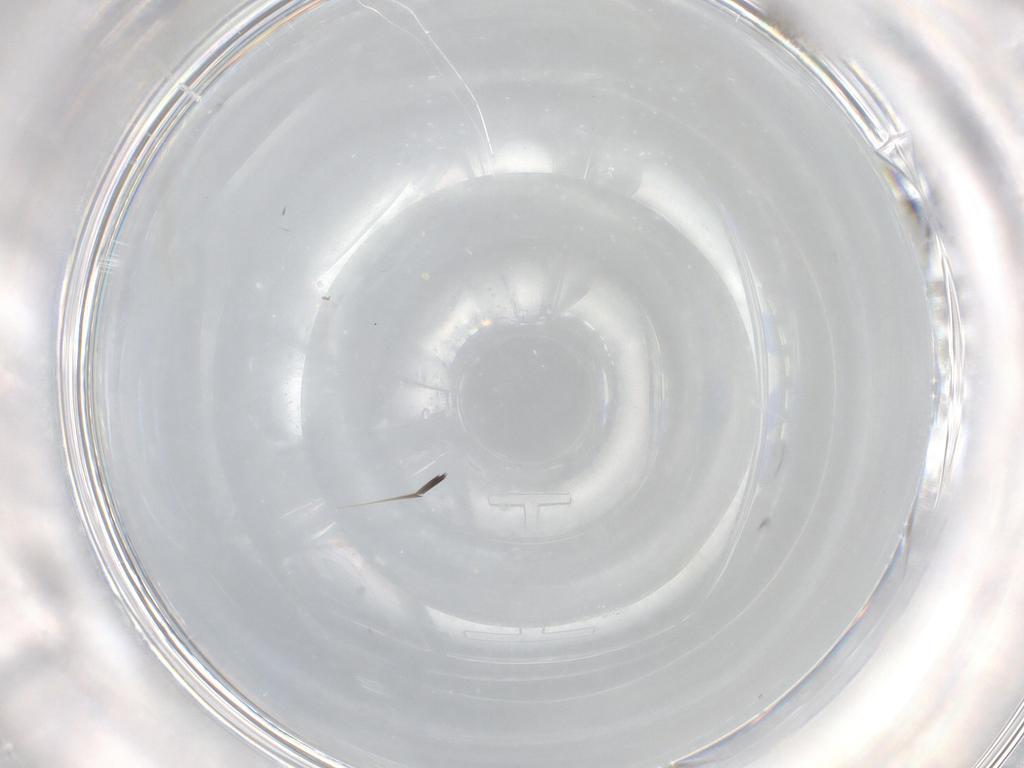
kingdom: Animalia
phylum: Arthropoda
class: Insecta
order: Diptera
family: Cecidomyiidae
